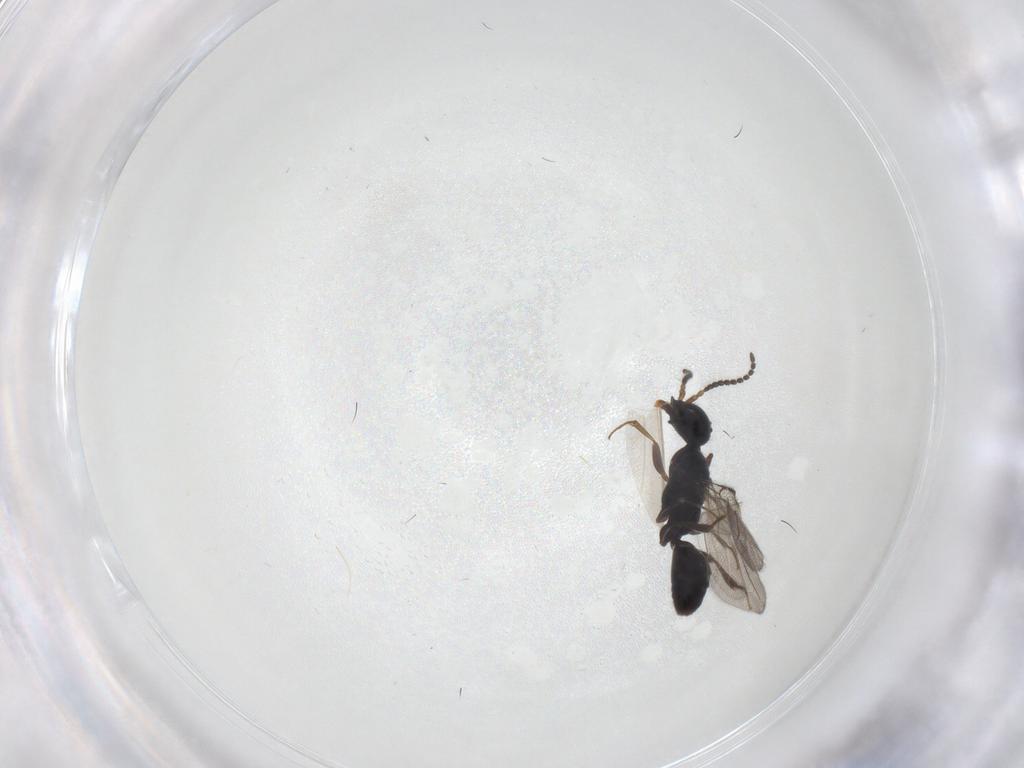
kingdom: Animalia
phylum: Arthropoda
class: Insecta
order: Hymenoptera
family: Bethylidae
